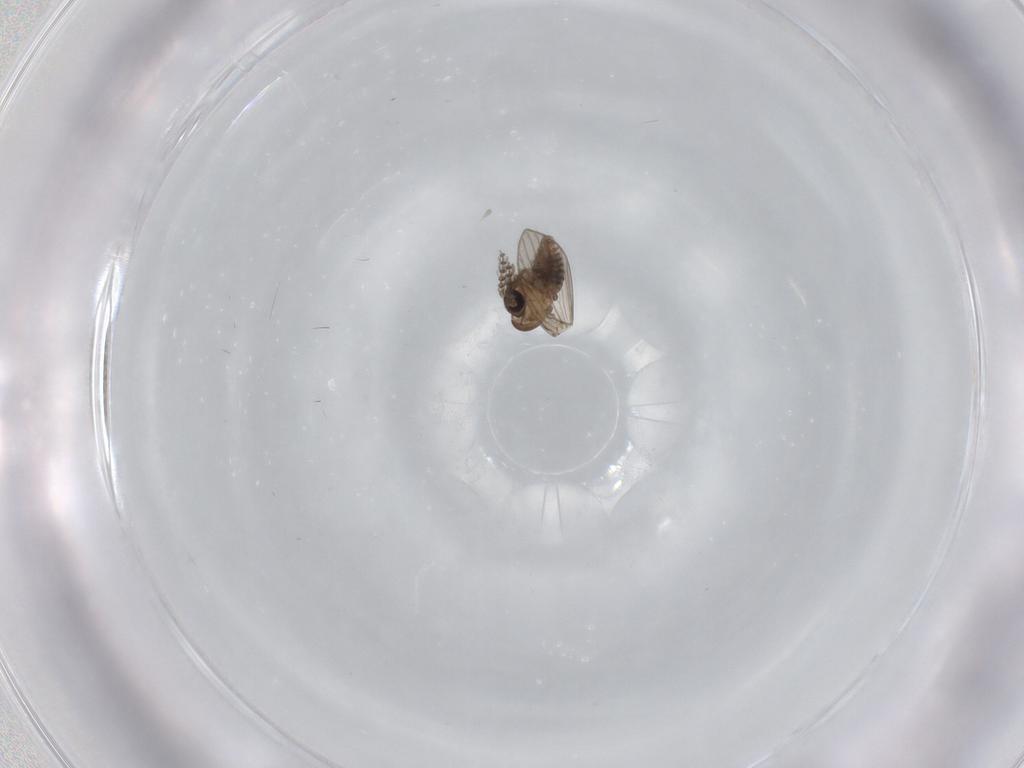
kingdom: Animalia
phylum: Arthropoda
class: Insecta
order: Diptera
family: Psychodidae
